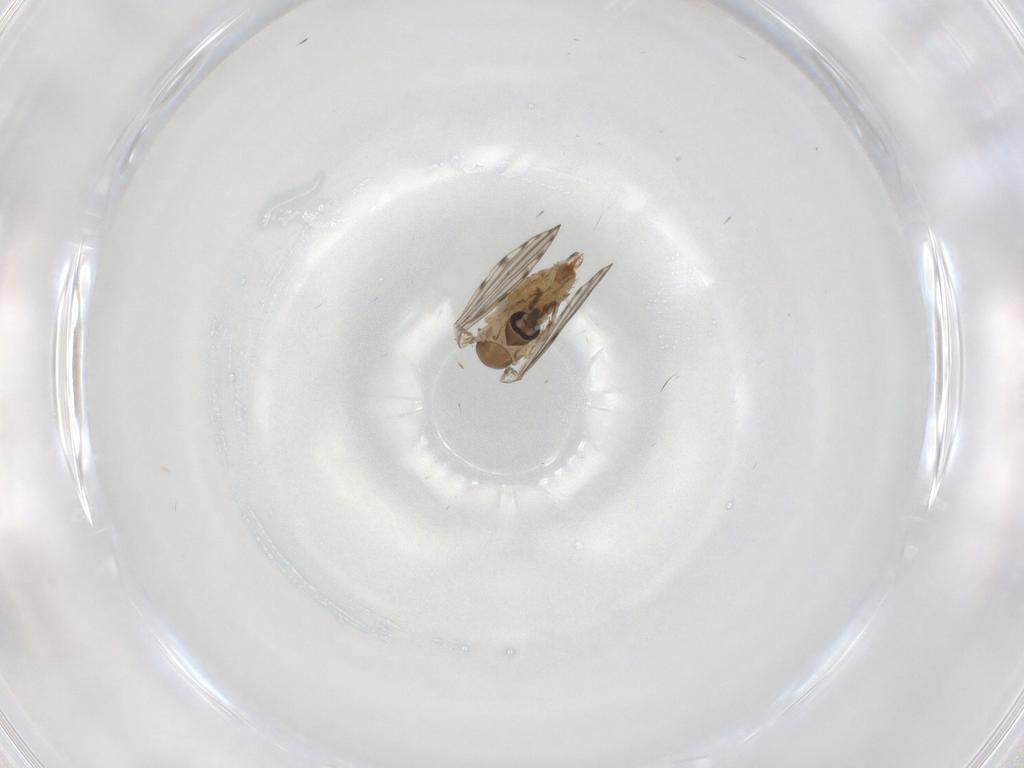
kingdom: Animalia
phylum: Arthropoda
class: Insecta
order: Diptera
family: Psychodidae
